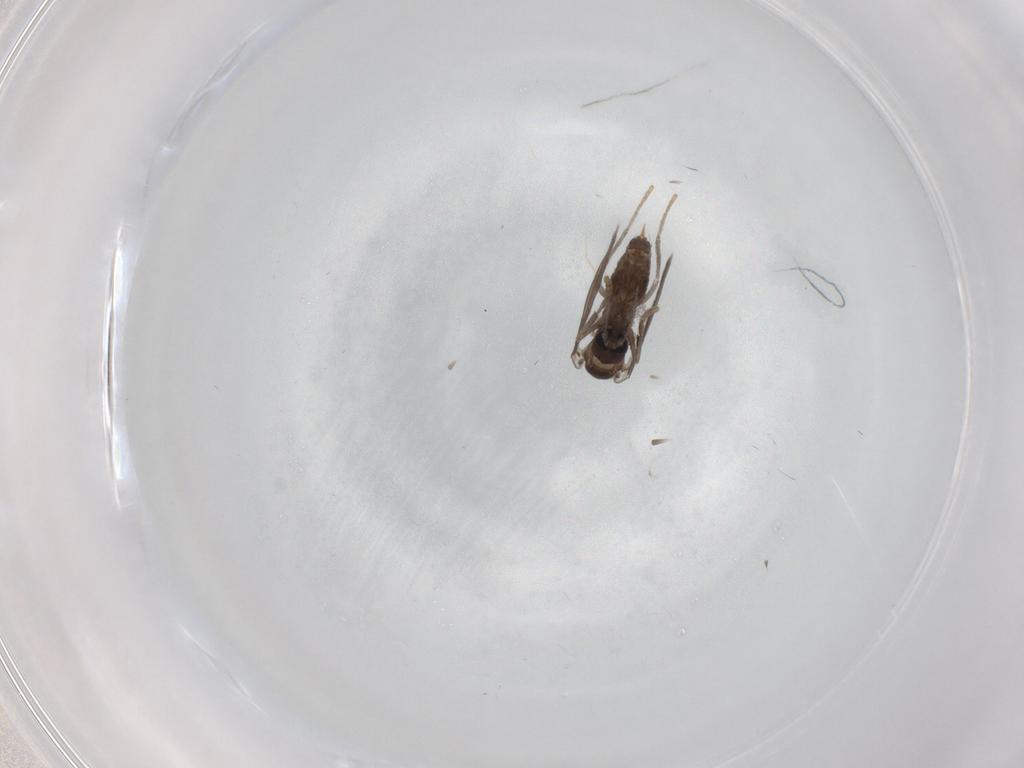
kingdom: Animalia
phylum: Arthropoda
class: Insecta
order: Diptera
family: Psychodidae
